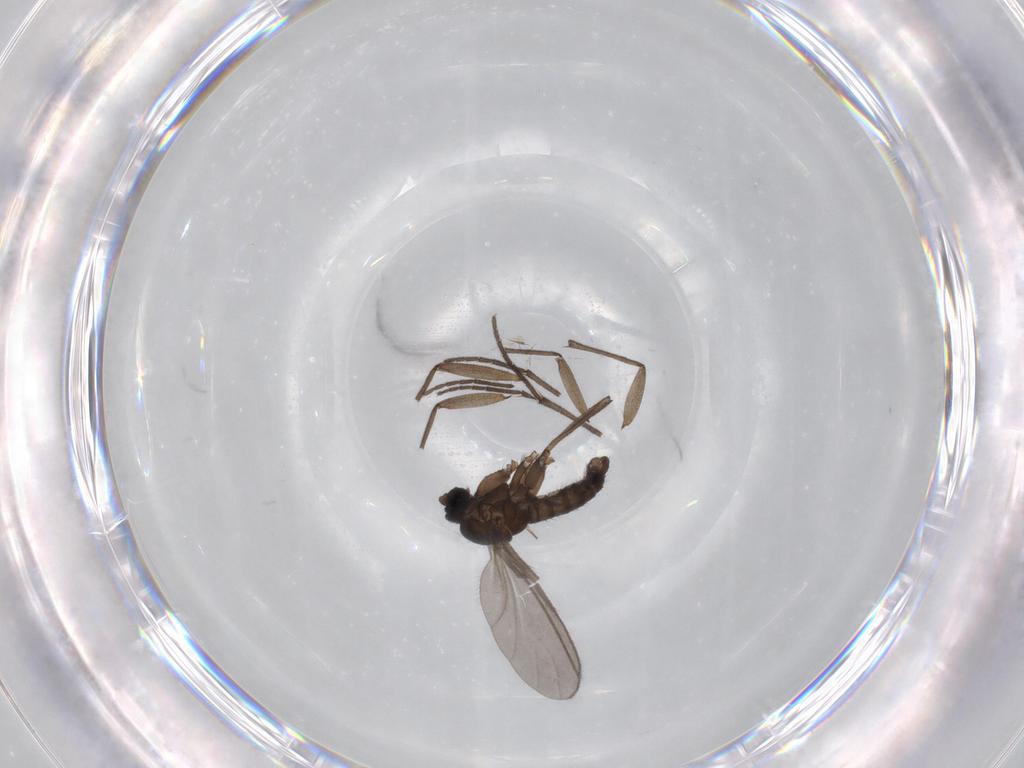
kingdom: Animalia
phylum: Arthropoda
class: Insecta
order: Diptera
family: Sciaridae
